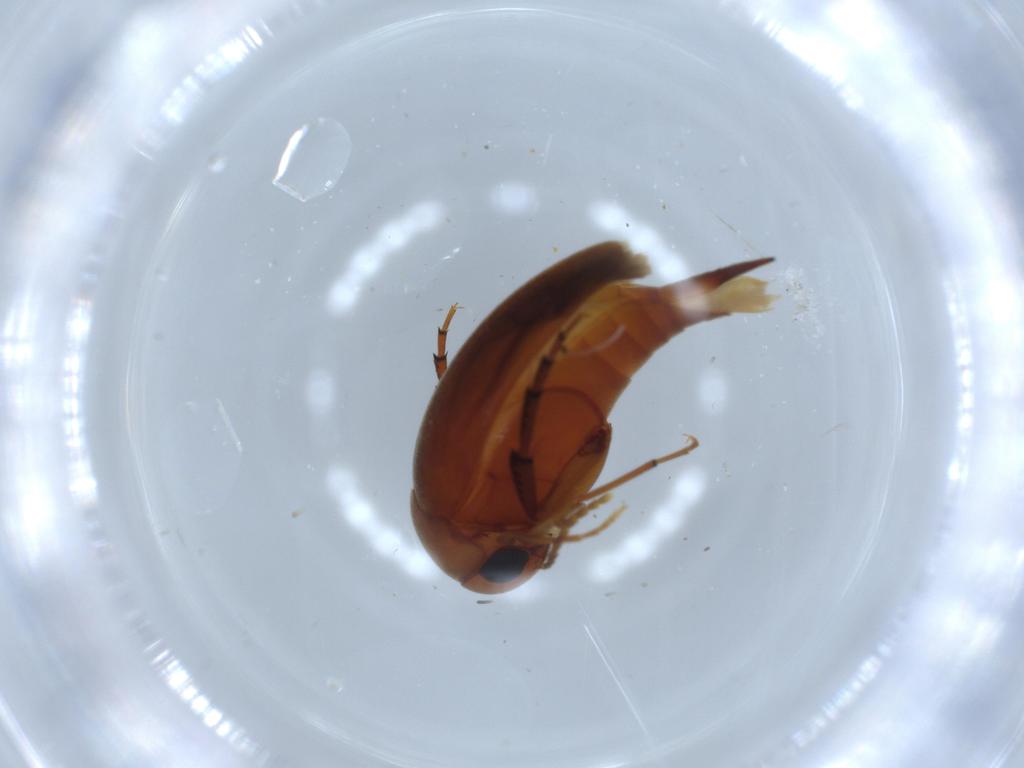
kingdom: Animalia
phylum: Arthropoda
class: Insecta
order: Coleoptera
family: Mordellidae
